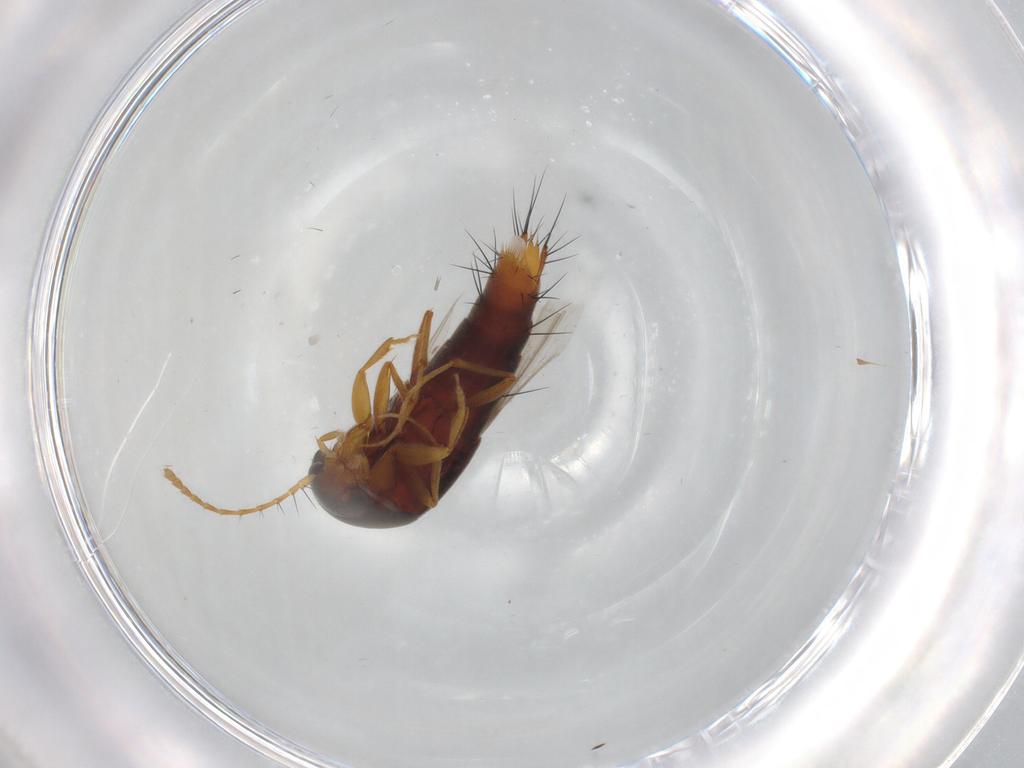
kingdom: Animalia
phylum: Arthropoda
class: Insecta
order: Coleoptera
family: Staphylinidae
